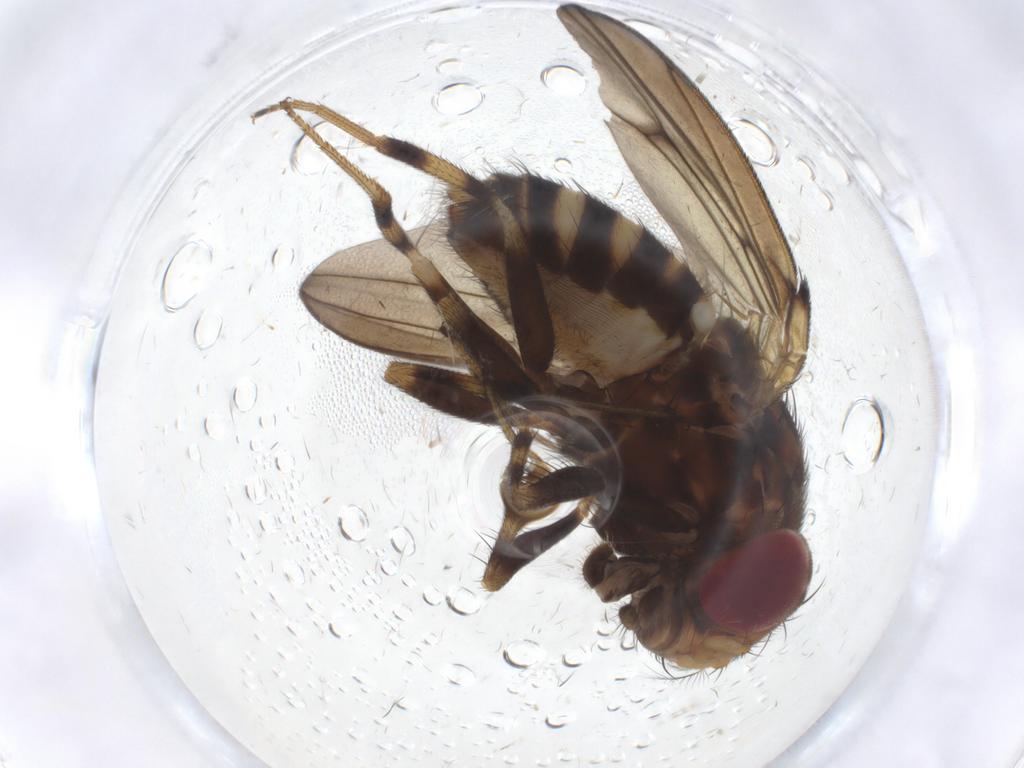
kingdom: Animalia
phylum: Arthropoda
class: Insecta
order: Diptera
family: Drosophilidae
